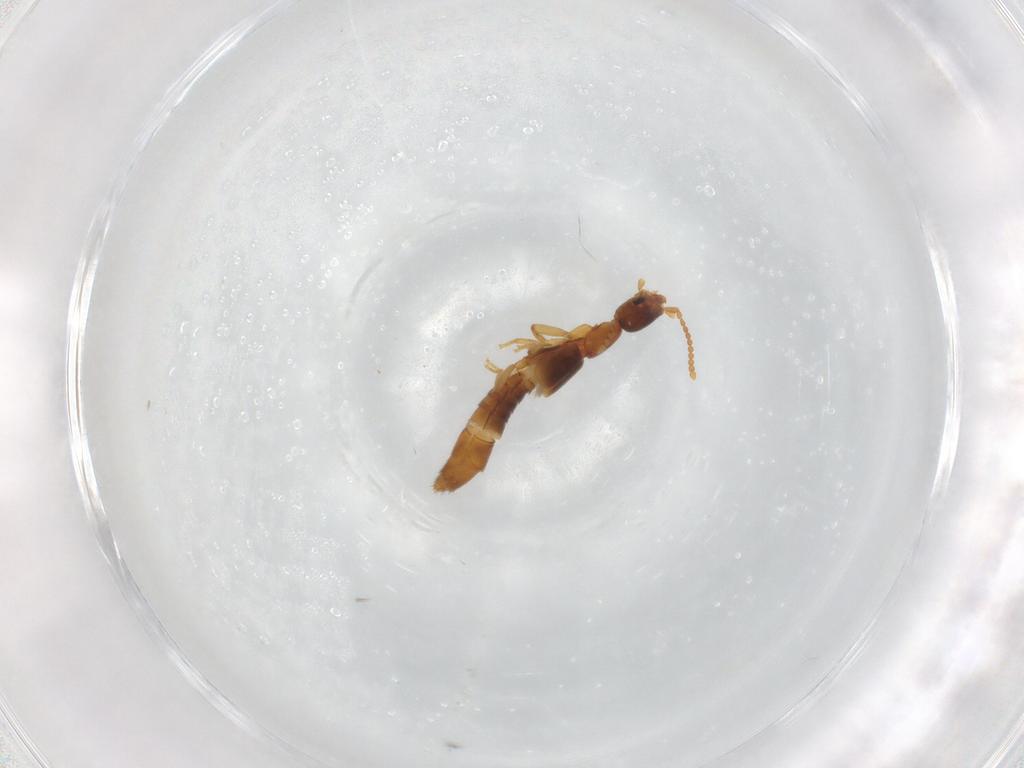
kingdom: Animalia
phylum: Arthropoda
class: Insecta
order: Coleoptera
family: Staphylinidae
